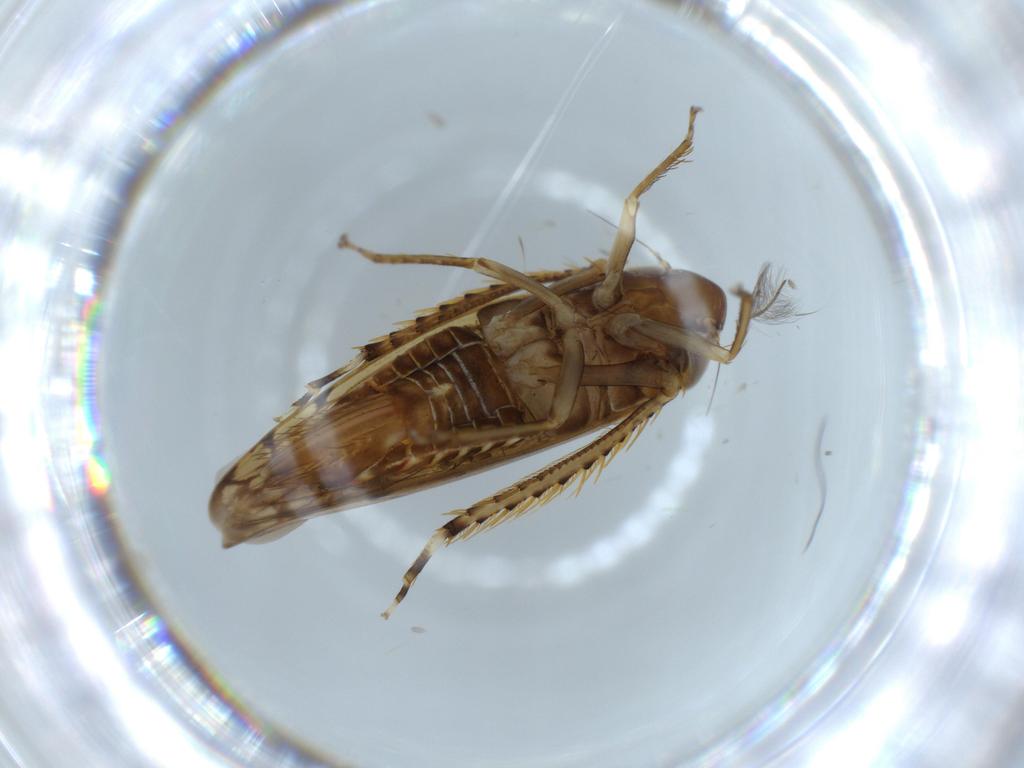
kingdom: Animalia
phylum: Arthropoda
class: Insecta
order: Hemiptera
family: Cicadellidae
